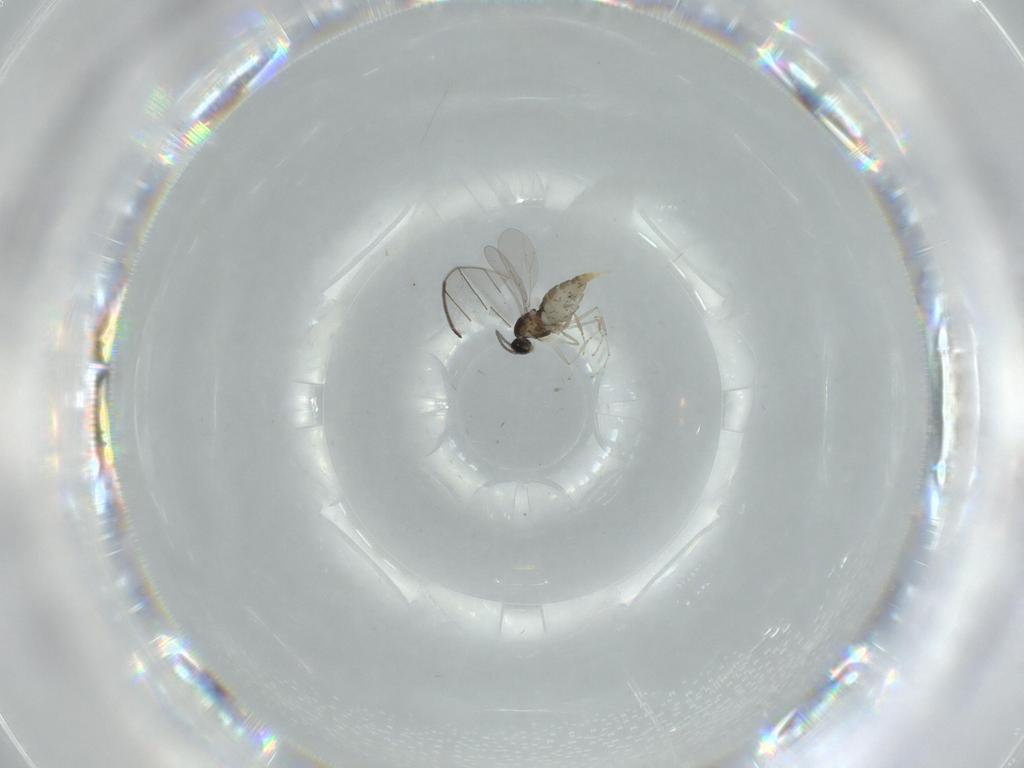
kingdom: Animalia
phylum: Arthropoda
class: Insecta
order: Diptera
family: Cecidomyiidae
